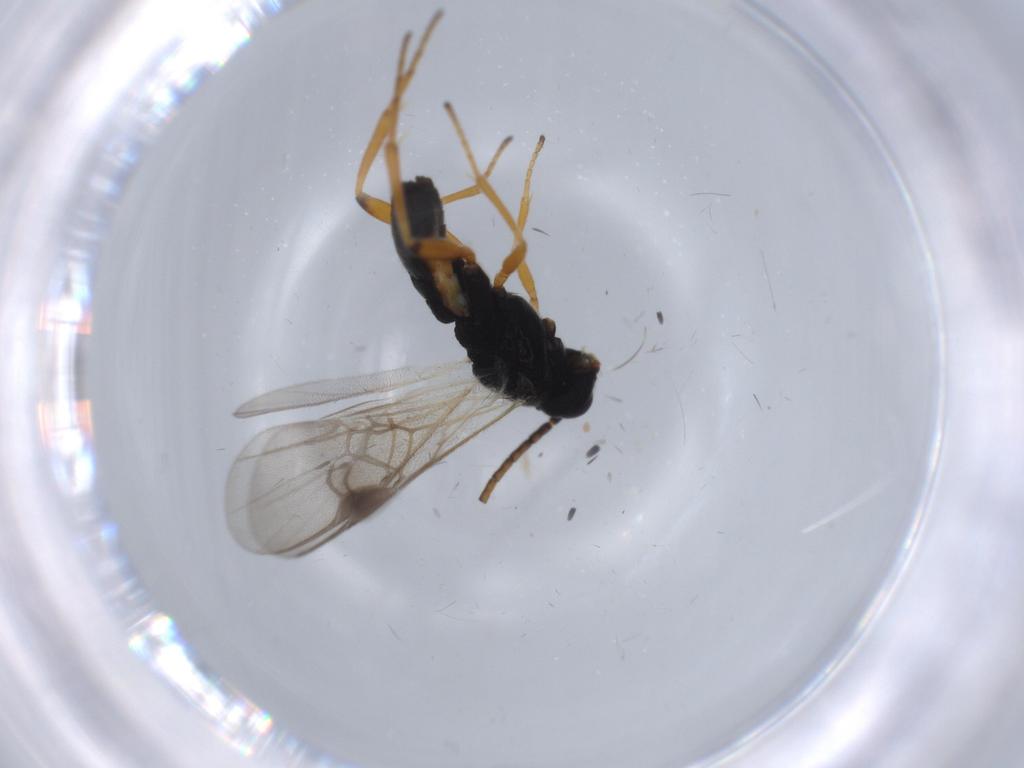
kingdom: Animalia
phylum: Arthropoda
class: Insecta
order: Hymenoptera
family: Braconidae
